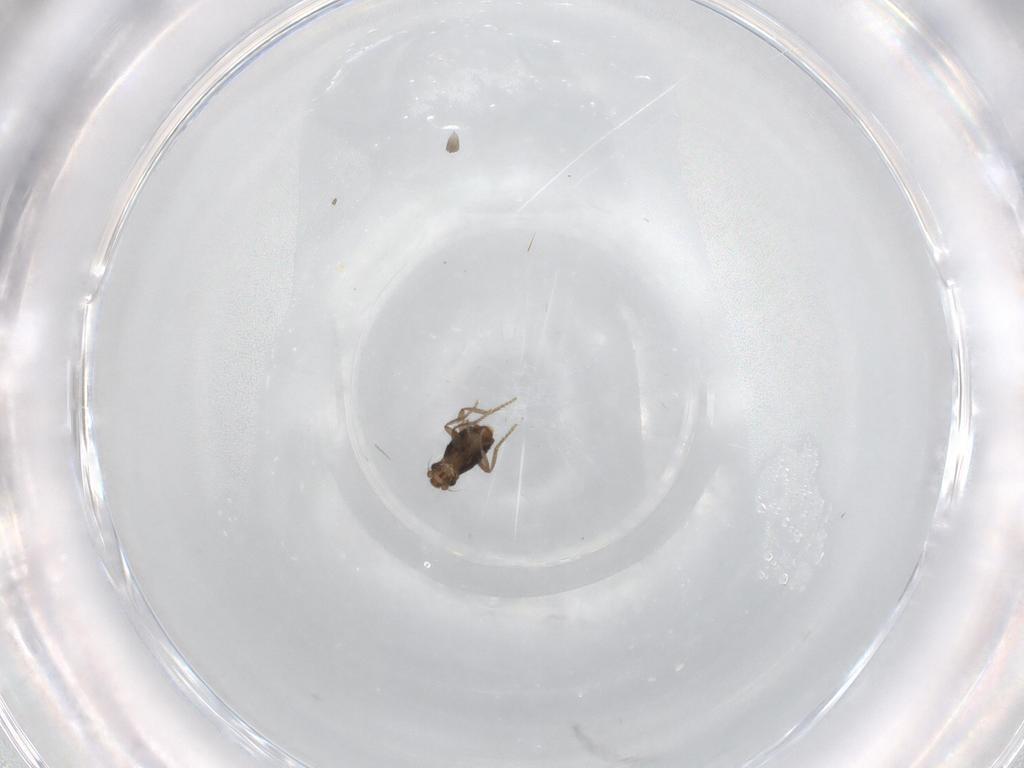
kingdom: Animalia
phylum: Arthropoda
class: Insecta
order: Diptera
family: Phoridae
